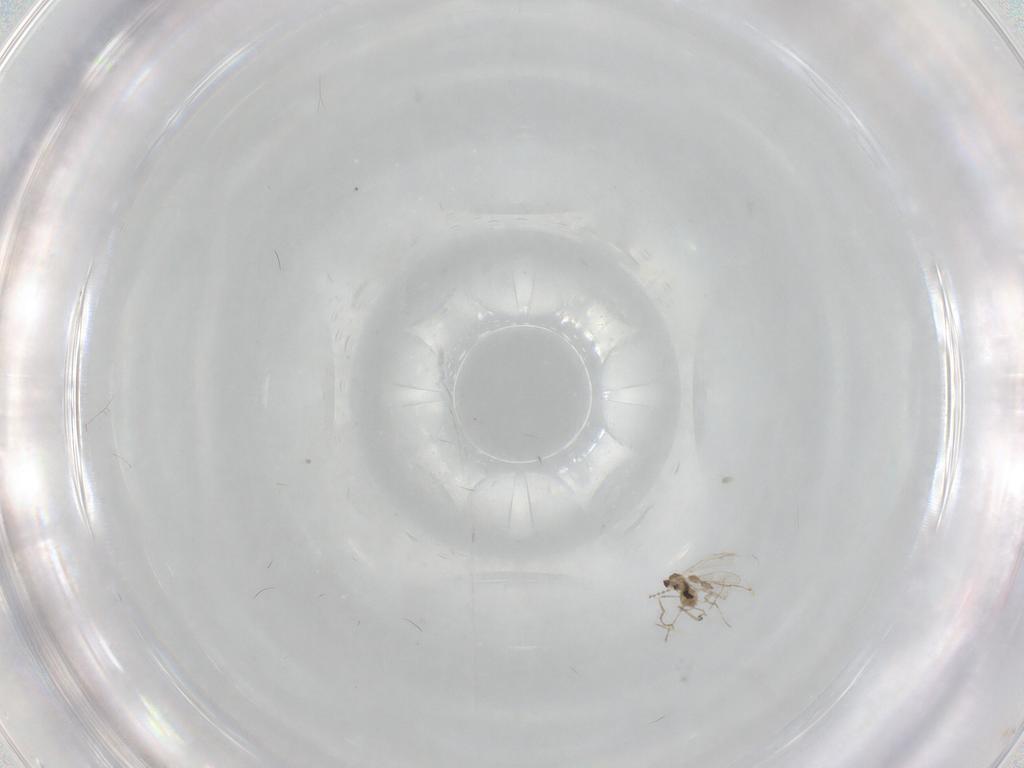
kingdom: Animalia
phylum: Arthropoda
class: Insecta
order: Diptera
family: Cecidomyiidae
